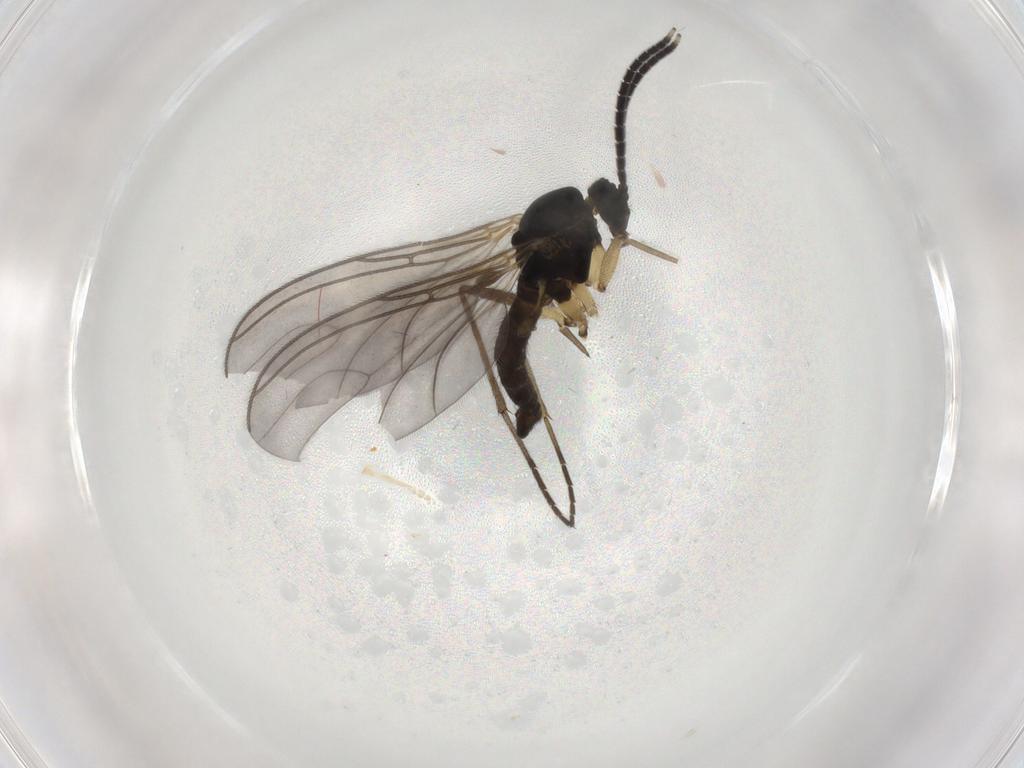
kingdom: Animalia
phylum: Arthropoda
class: Insecta
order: Diptera
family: Sciaridae
